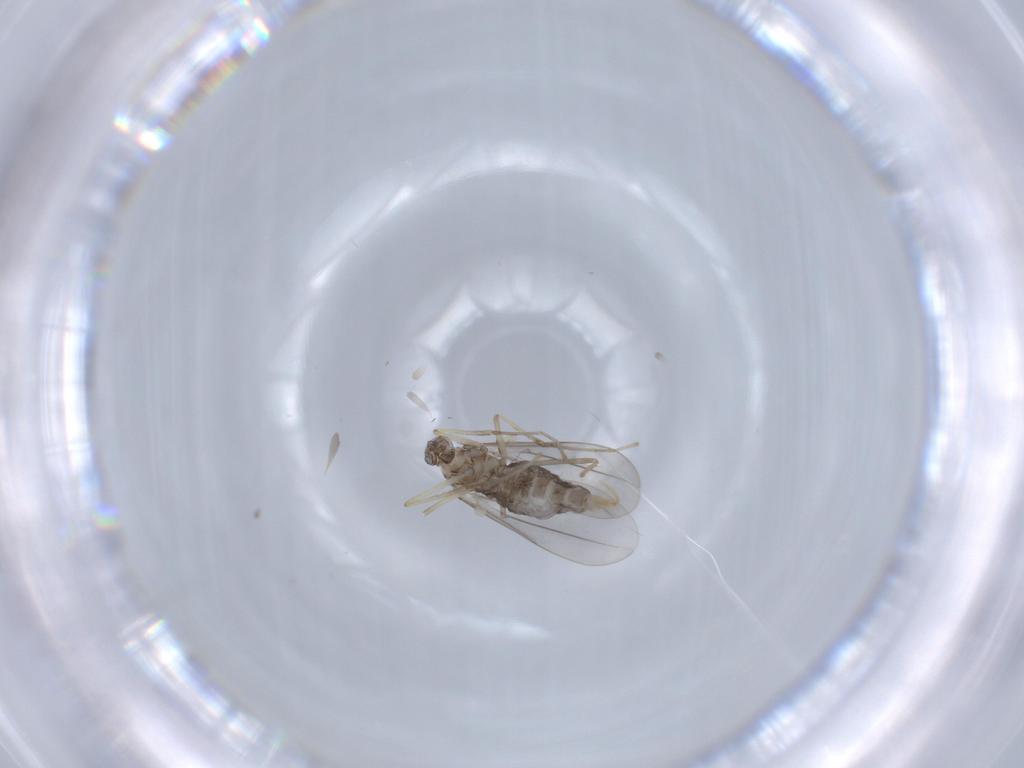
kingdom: Animalia
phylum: Arthropoda
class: Insecta
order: Diptera
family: Cecidomyiidae
